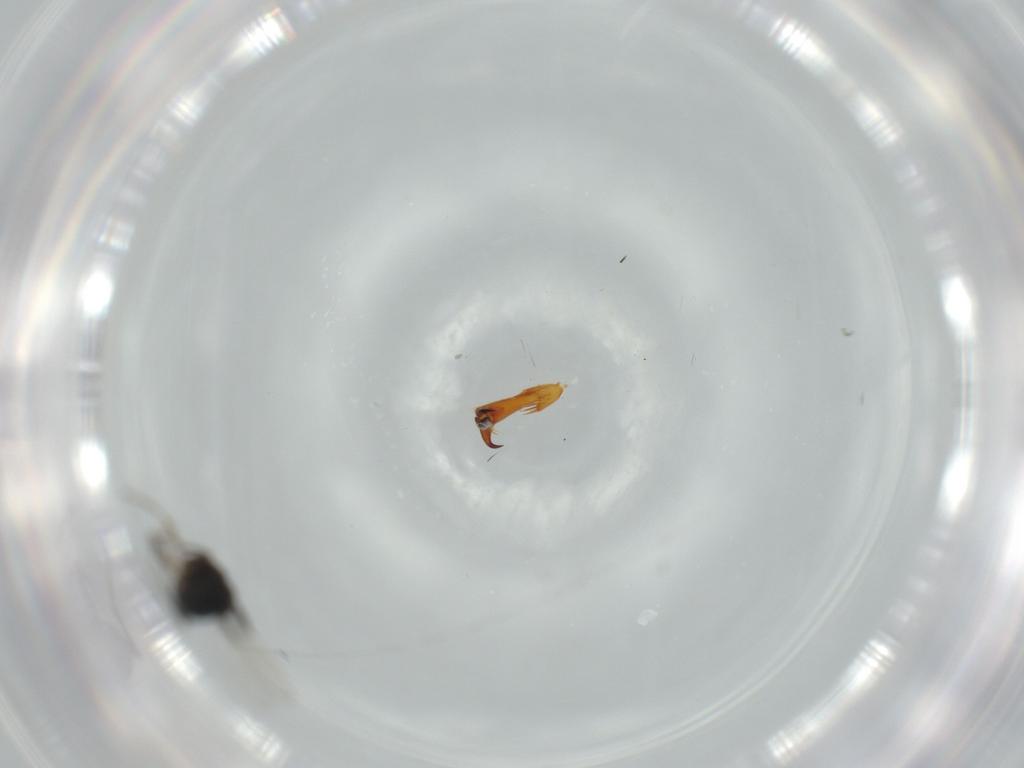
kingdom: Animalia
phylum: Arthropoda
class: Insecta
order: Diptera
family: Phoridae
